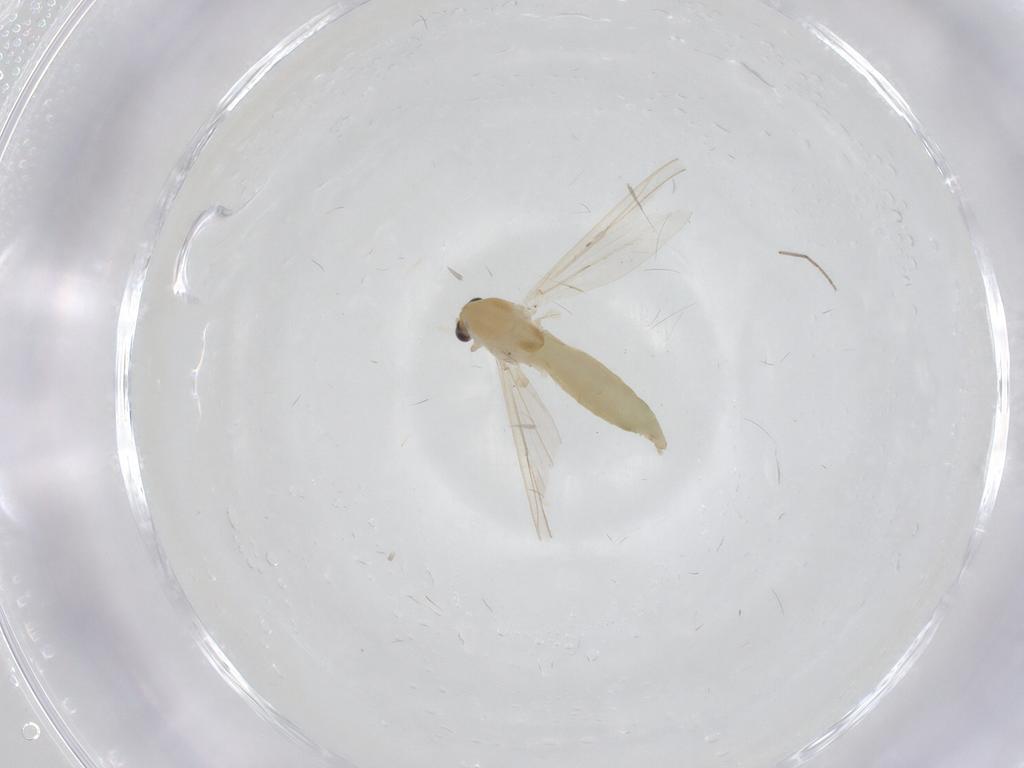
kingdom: Animalia
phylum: Arthropoda
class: Insecta
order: Diptera
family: Chironomidae
